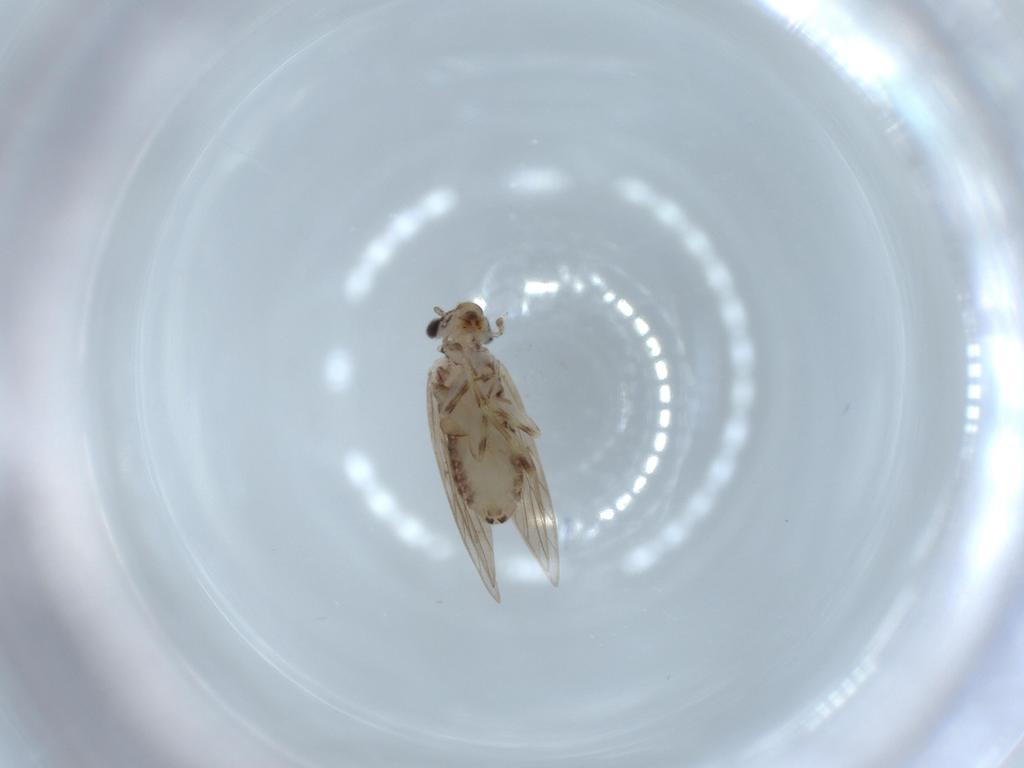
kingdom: Animalia
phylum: Arthropoda
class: Insecta
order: Psocodea
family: Lepidopsocidae
